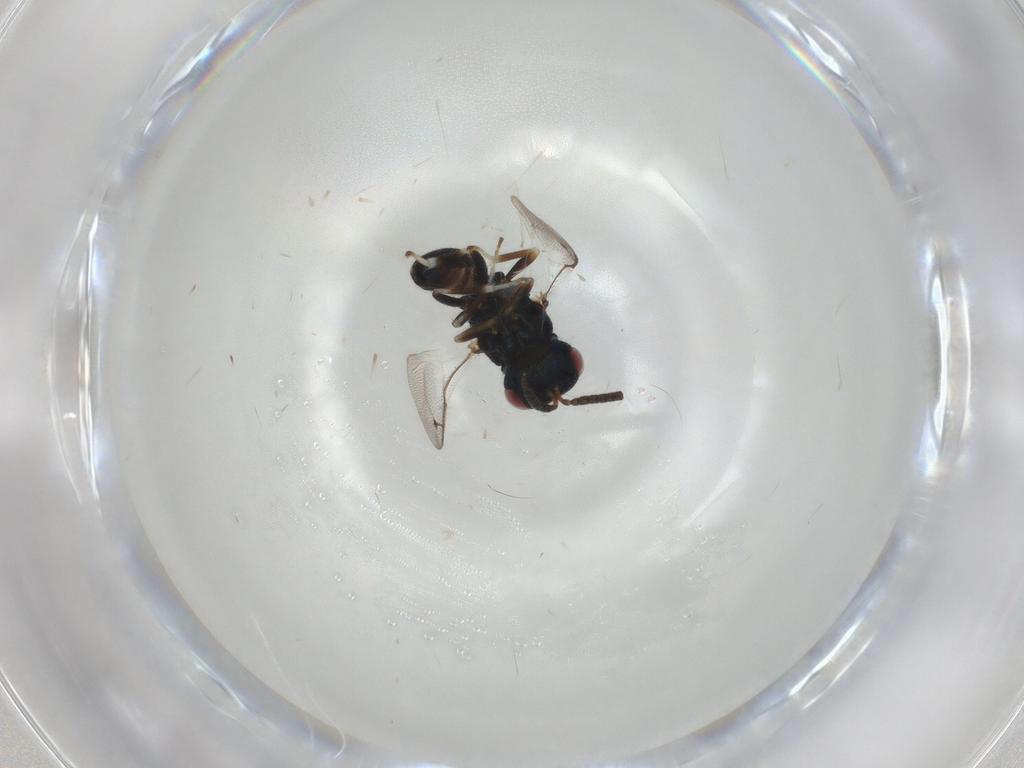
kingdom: Animalia
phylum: Arthropoda
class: Insecta
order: Hymenoptera
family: Pteromalidae
